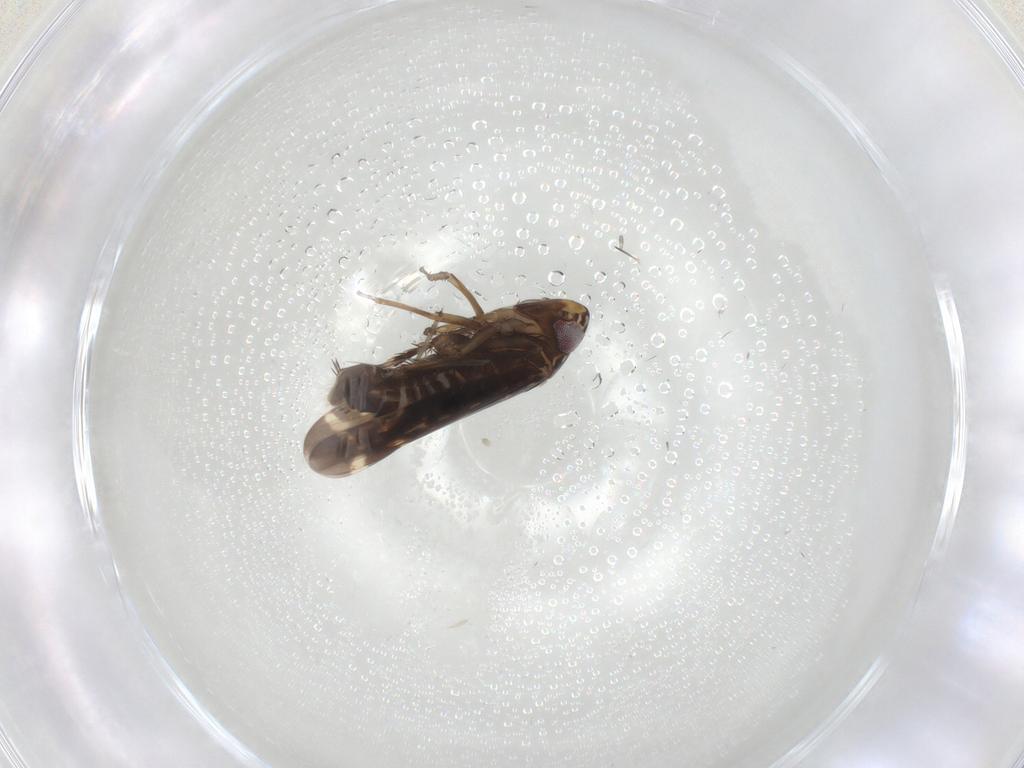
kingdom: Animalia
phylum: Arthropoda
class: Insecta
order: Hemiptera
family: Cicadellidae
